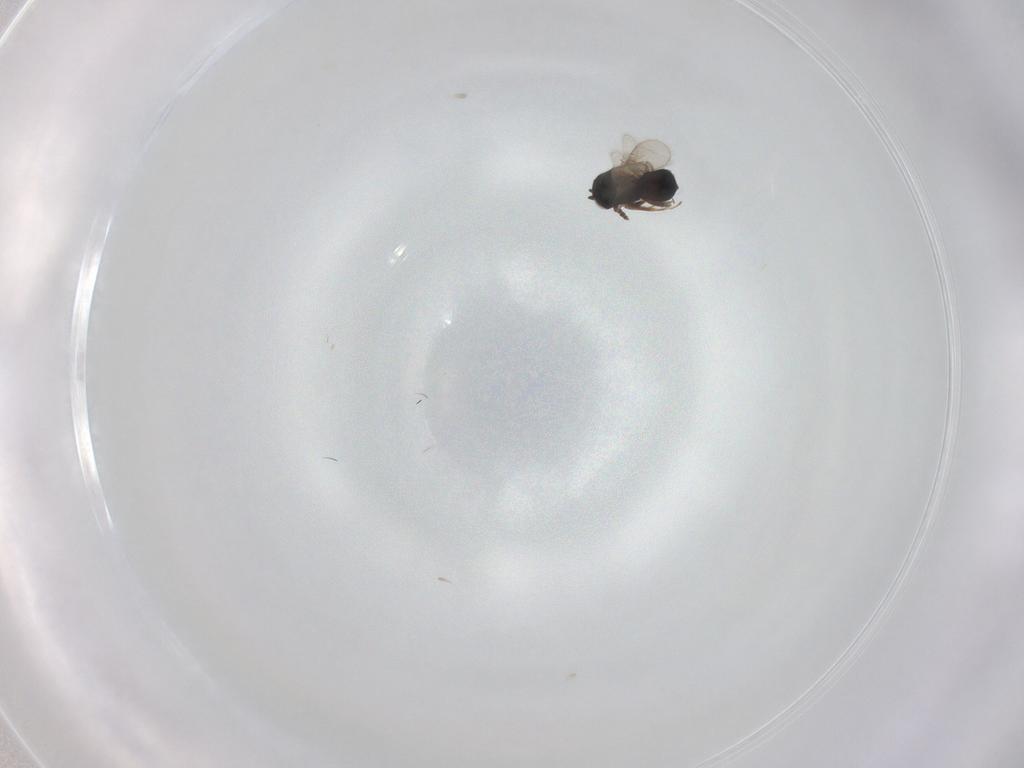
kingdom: Animalia
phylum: Arthropoda
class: Insecta
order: Hymenoptera
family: Scelionidae
